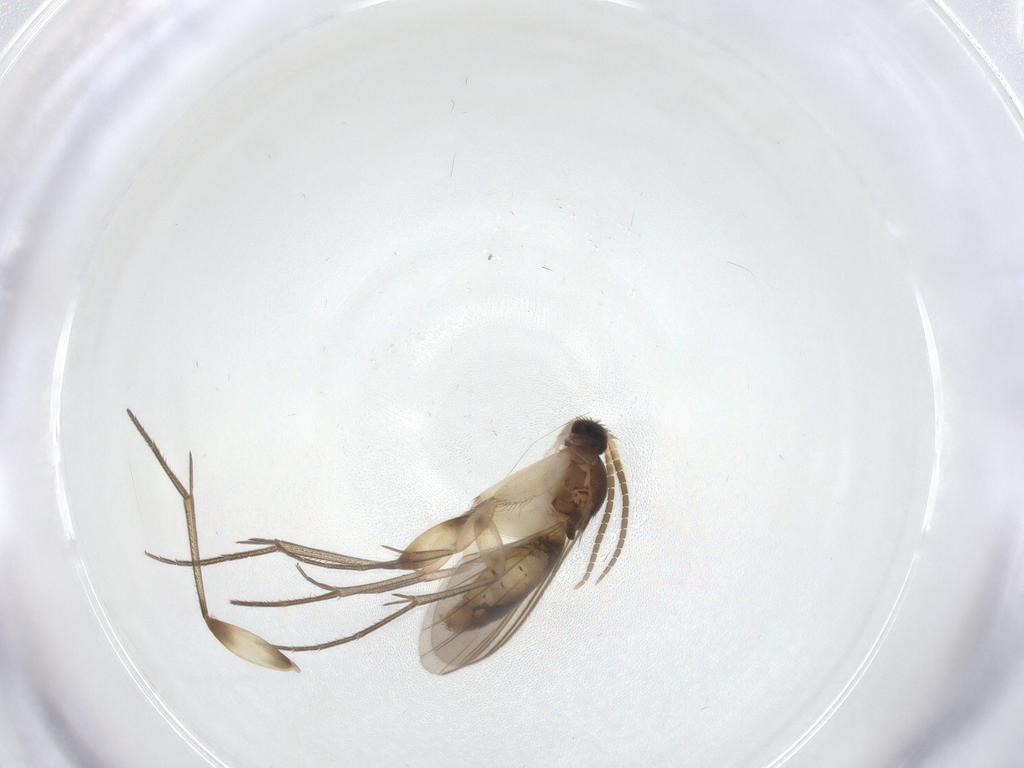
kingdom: Animalia
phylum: Arthropoda
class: Insecta
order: Diptera
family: Mycetophilidae
